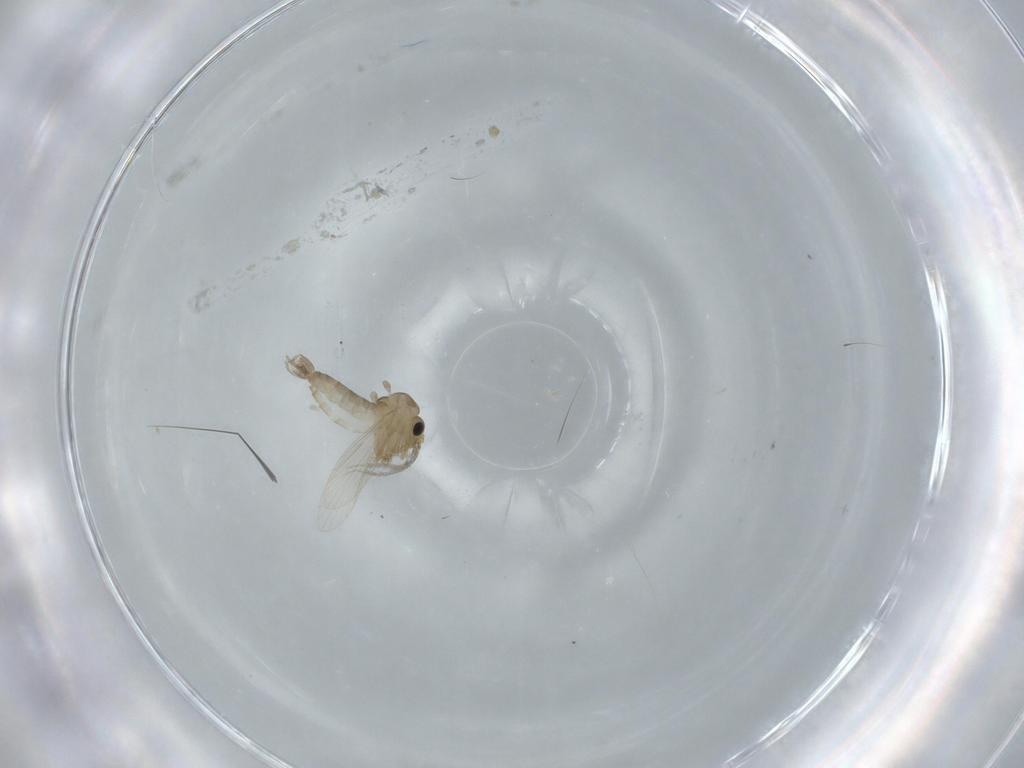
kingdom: Animalia
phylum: Arthropoda
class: Insecta
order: Diptera
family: Psychodidae
